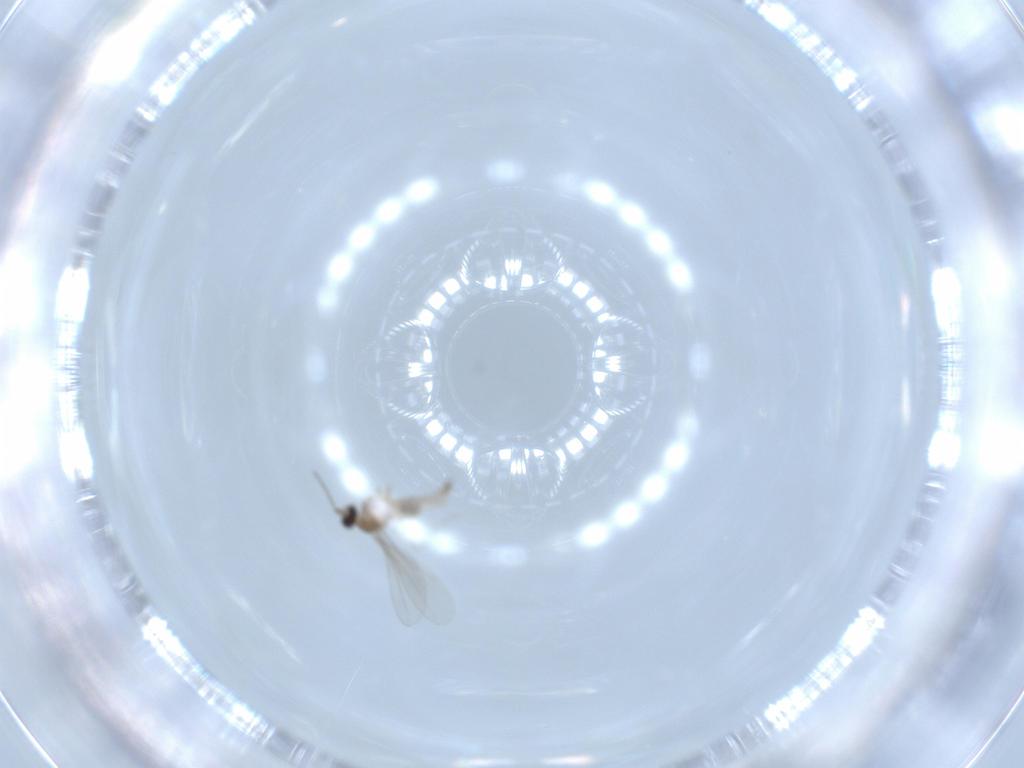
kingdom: Animalia
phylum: Arthropoda
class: Insecta
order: Diptera
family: Cecidomyiidae
